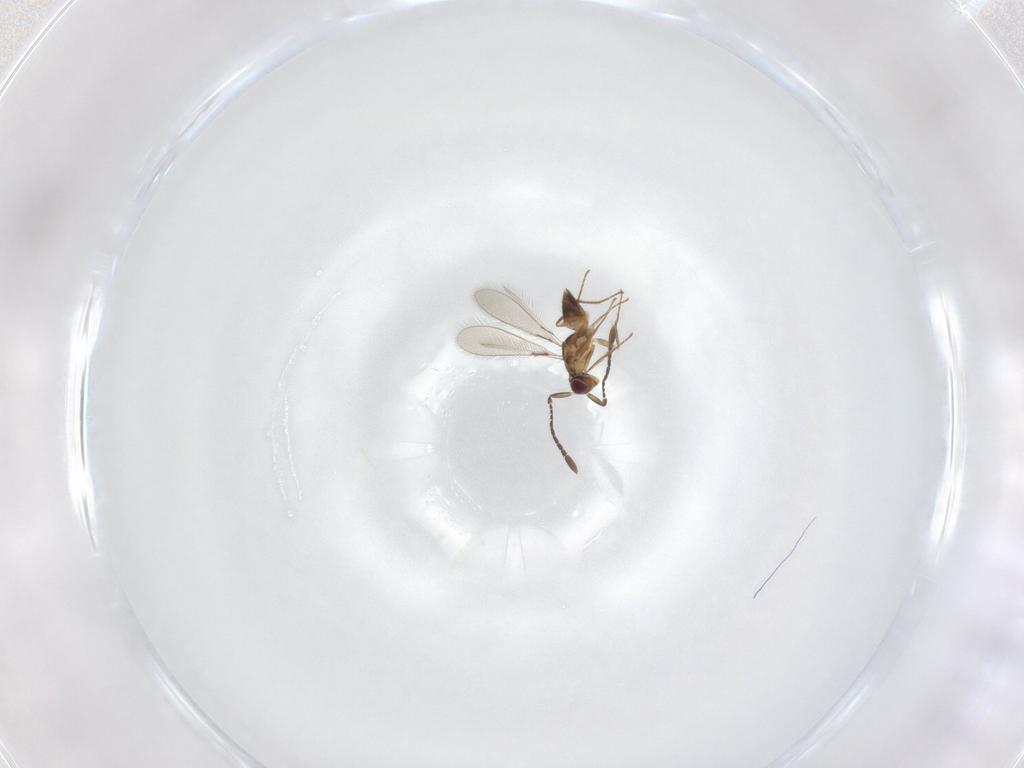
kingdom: Animalia
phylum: Arthropoda
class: Insecta
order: Hymenoptera
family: Mymaridae
